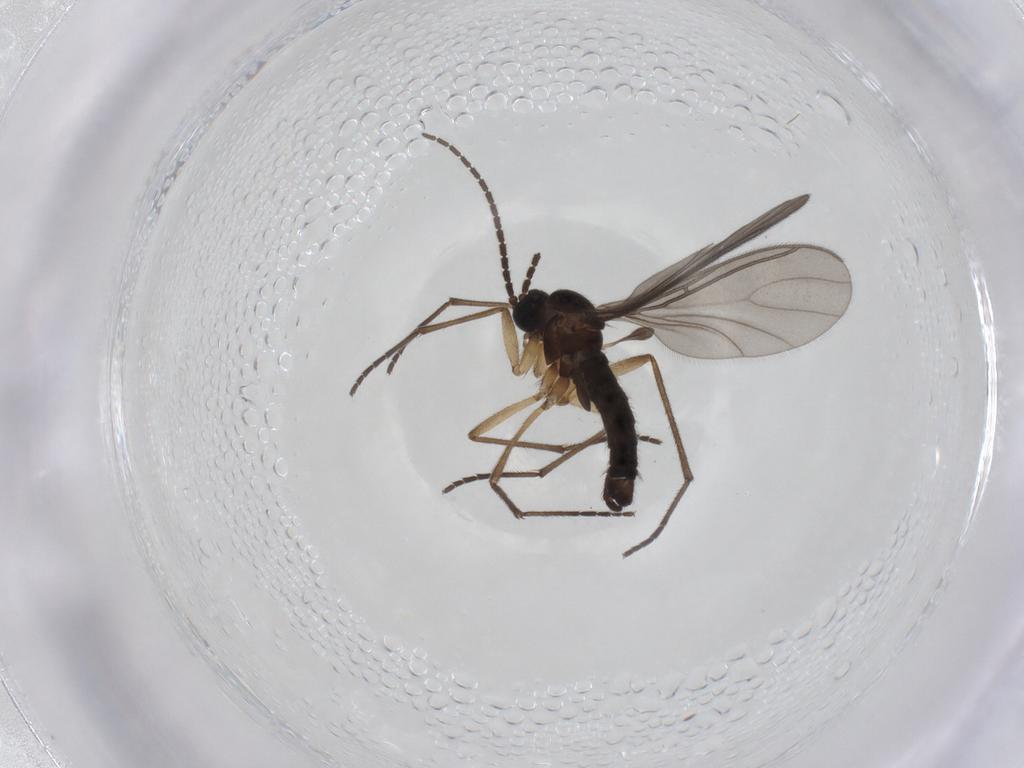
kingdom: Animalia
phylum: Arthropoda
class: Insecta
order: Diptera
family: Sciaridae
